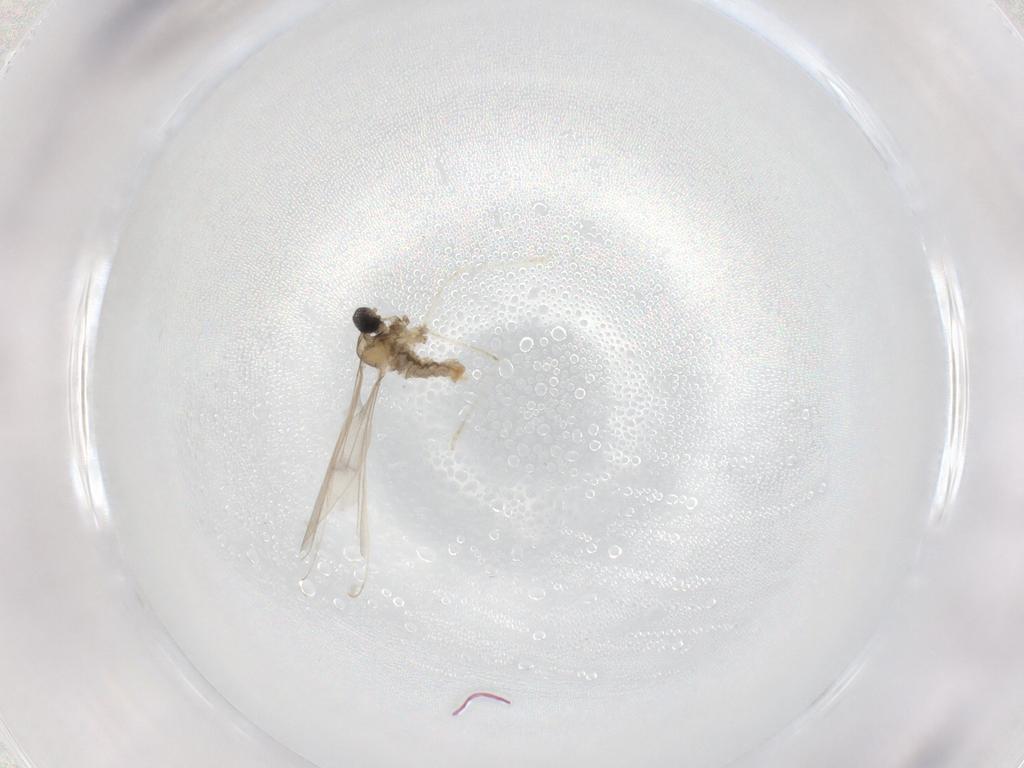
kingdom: Animalia
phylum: Arthropoda
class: Insecta
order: Diptera
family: Cecidomyiidae
